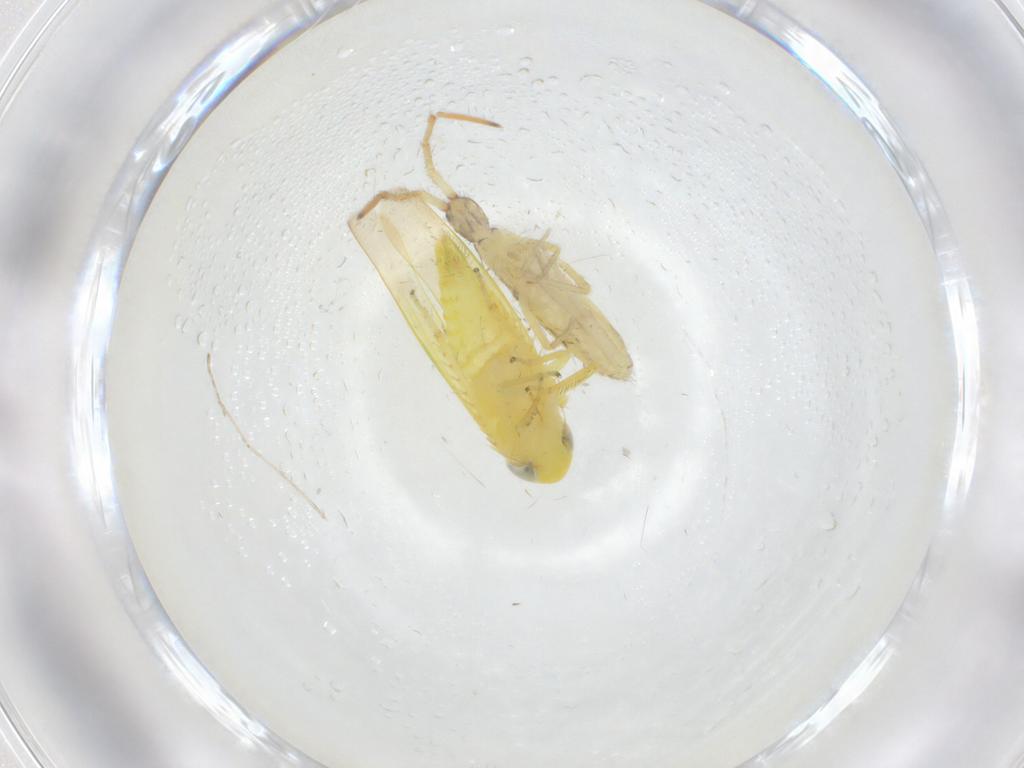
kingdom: Animalia
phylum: Arthropoda
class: Collembola
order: Entomobryomorpha
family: Entomobryidae
